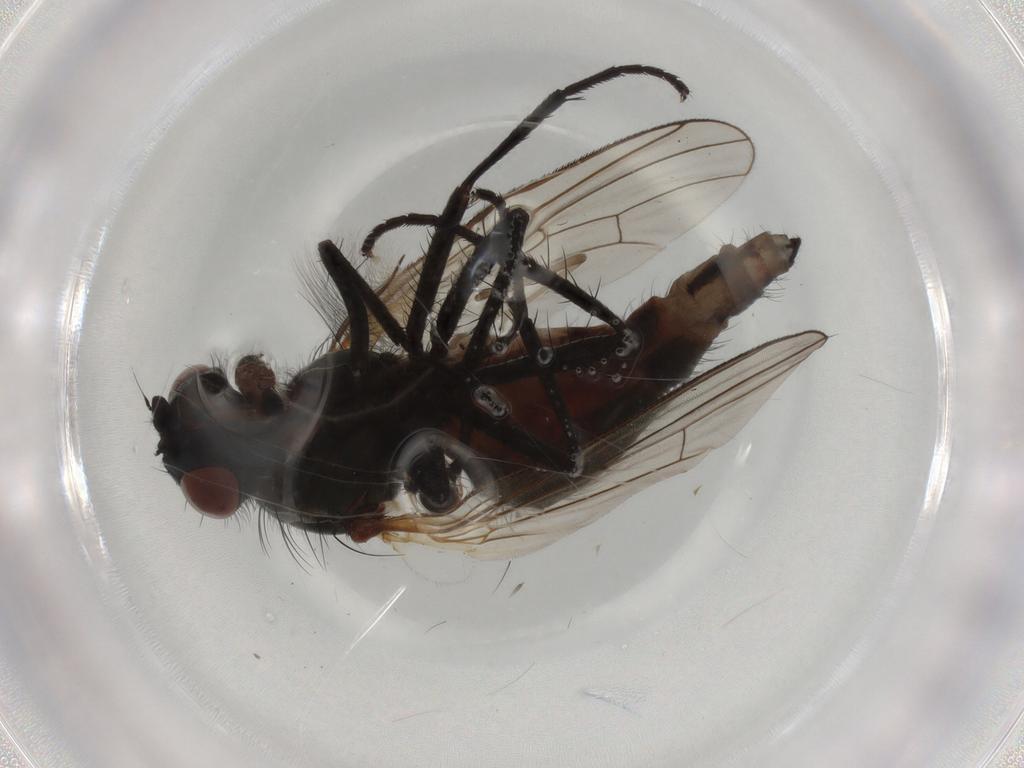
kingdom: Animalia
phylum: Arthropoda
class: Insecta
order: Diptera
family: Anthomyiidae
